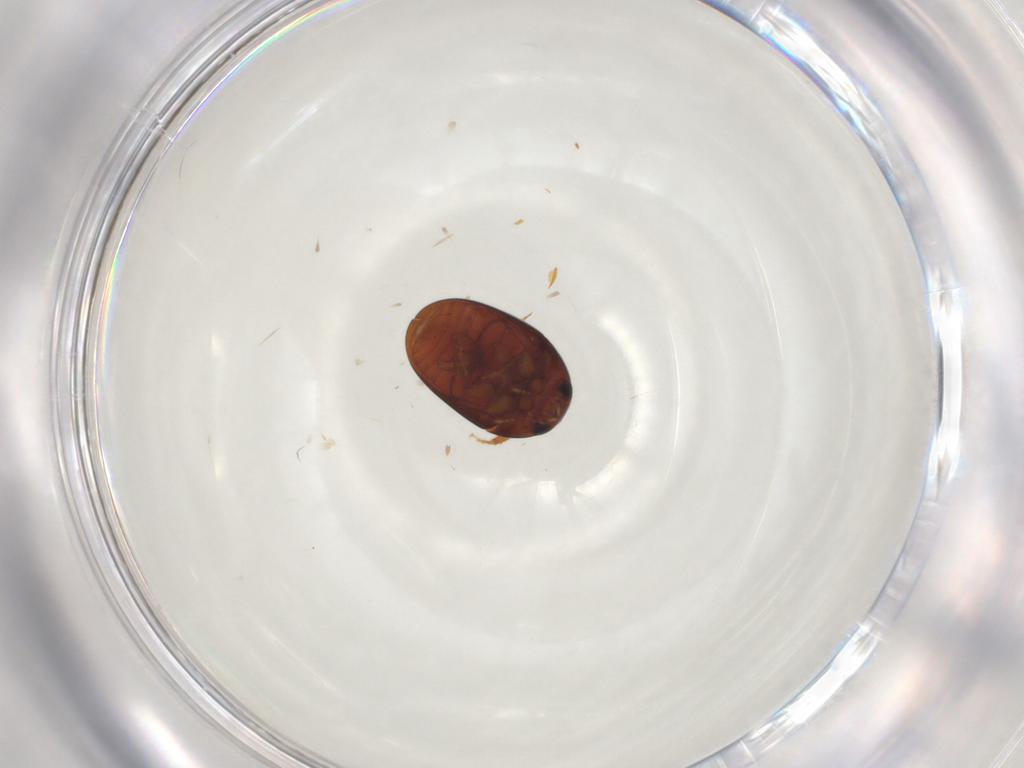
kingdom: Animalia
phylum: Arthropoda
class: Insecta
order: Coleoptera
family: Phalacridae
